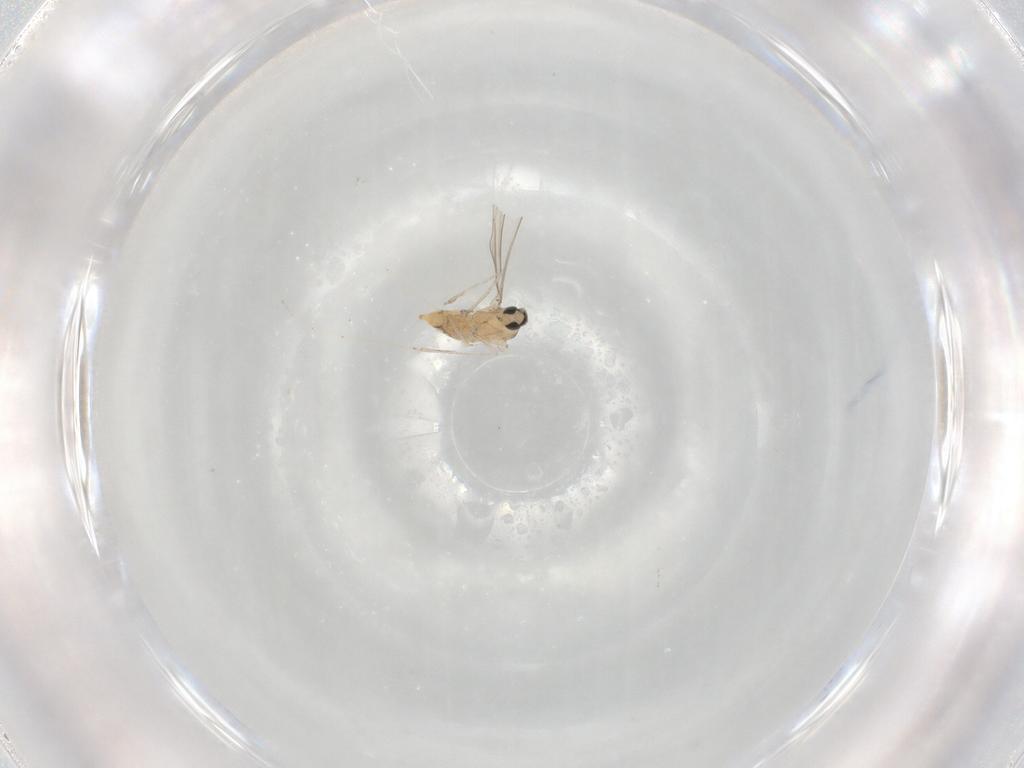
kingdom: Animalia
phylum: Arthropoda
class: Insecta
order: Diptera
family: Cecidomyiidae
